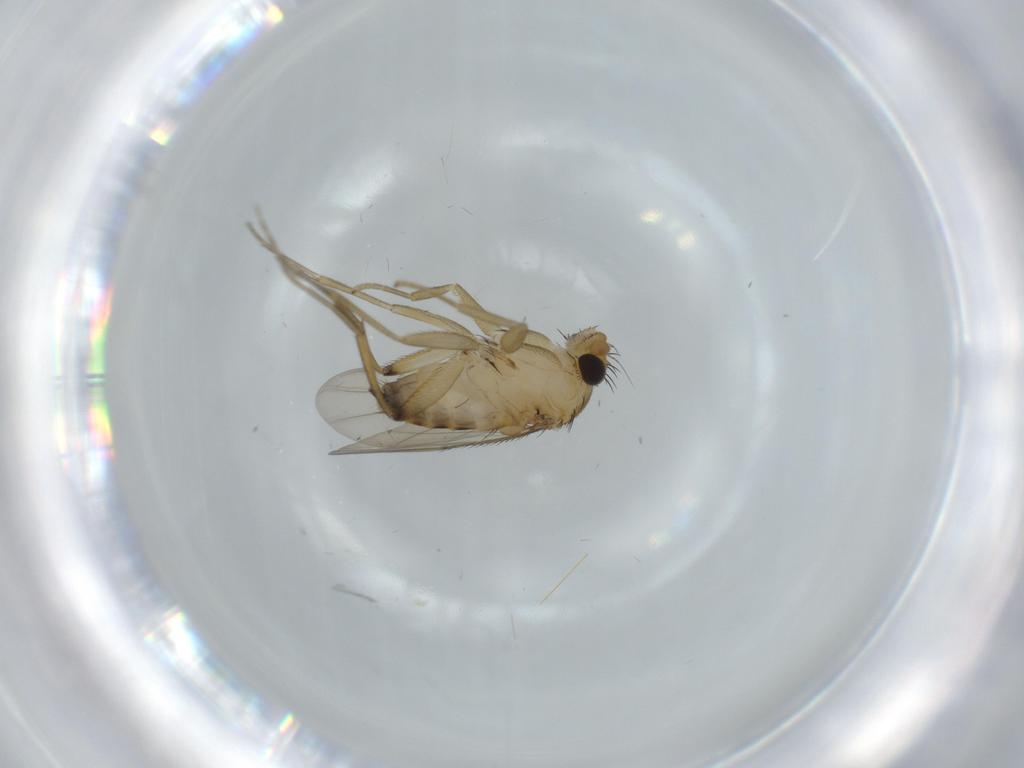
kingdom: Animalia
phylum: Arthropoda
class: Insecta
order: Diptera
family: Phoridae
